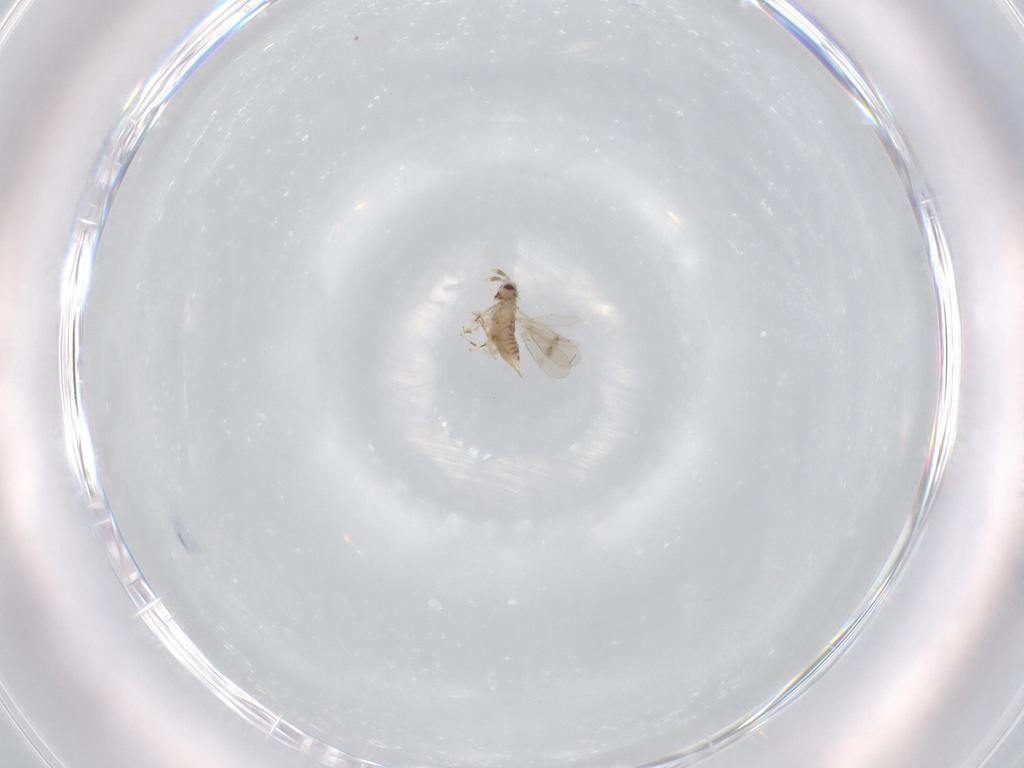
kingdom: Animalia
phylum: Arthropoda
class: Insecta
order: Hymenoptera
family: Aphelinidae
